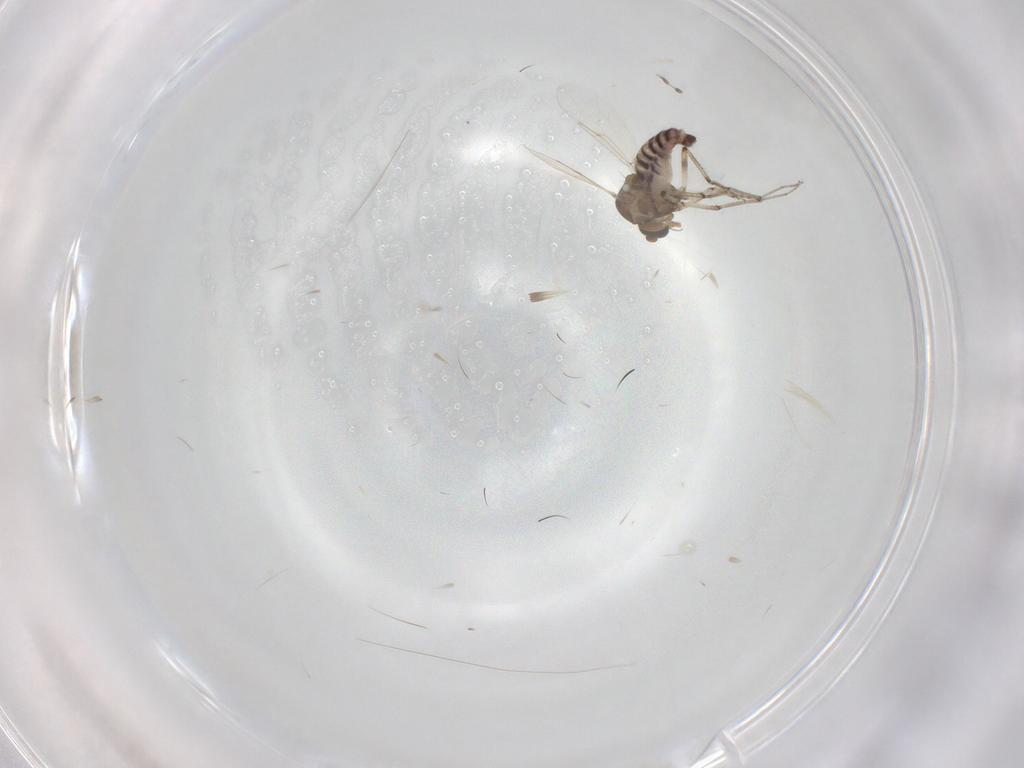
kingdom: Animalia
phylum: Arthropoda
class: Insecta
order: Diptera
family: Ceratopogonidae
